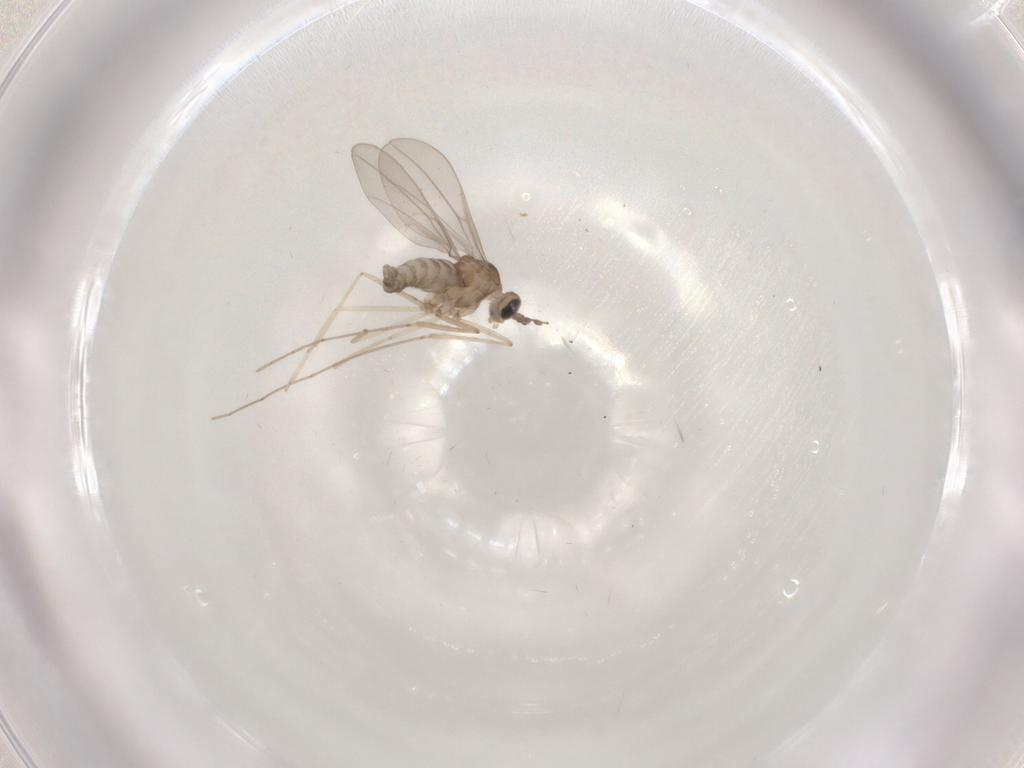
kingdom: Animalia
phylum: Arthropoda
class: Insecta
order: Diptera
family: Cecidomyiidae
